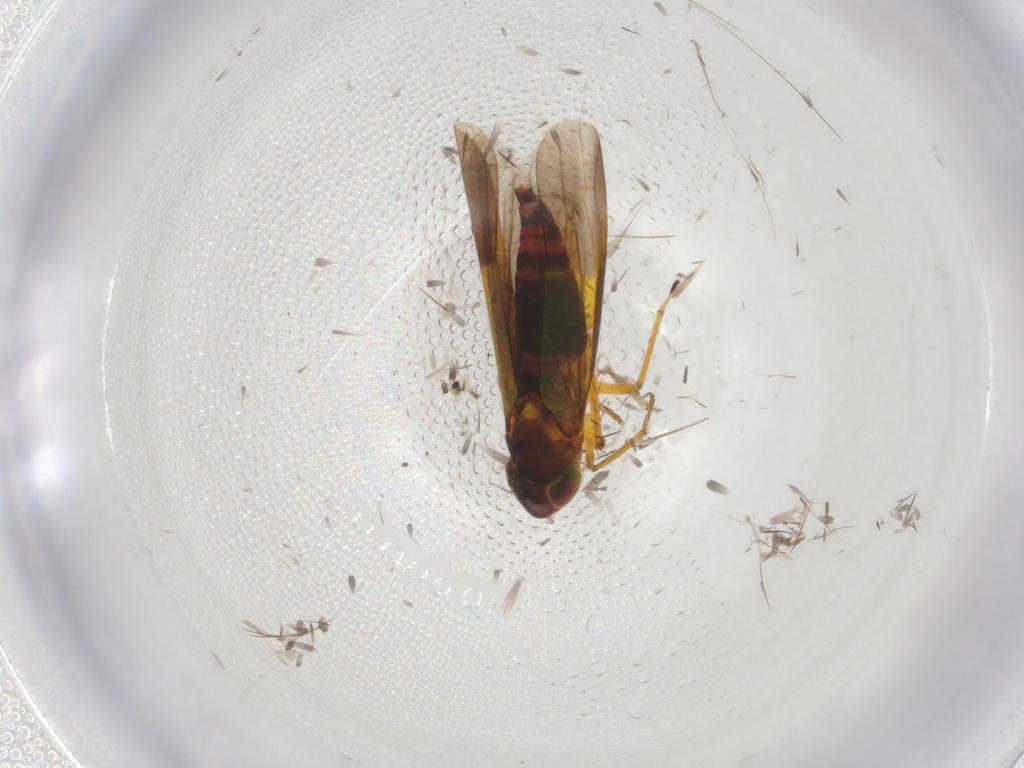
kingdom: Animalia
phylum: Arthropoda
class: Insecta
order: Hemiptera
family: Cicadellidae
